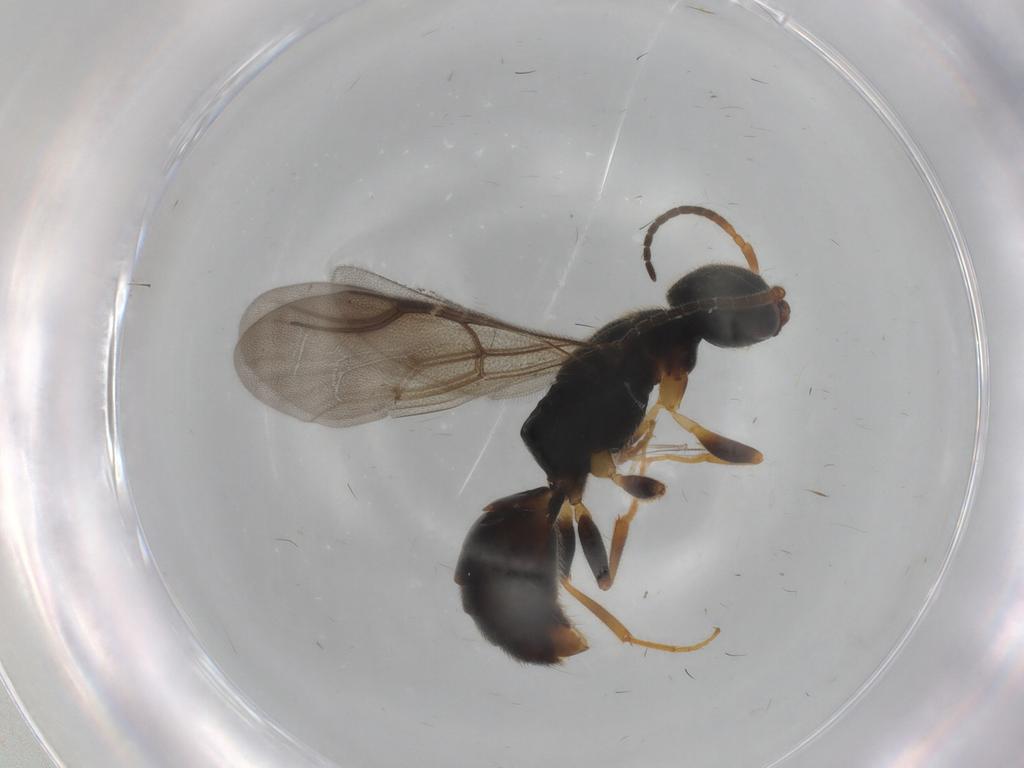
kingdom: Animalia
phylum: Arthropoda
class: Insecta
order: Hymenoptera
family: Bethylidae
